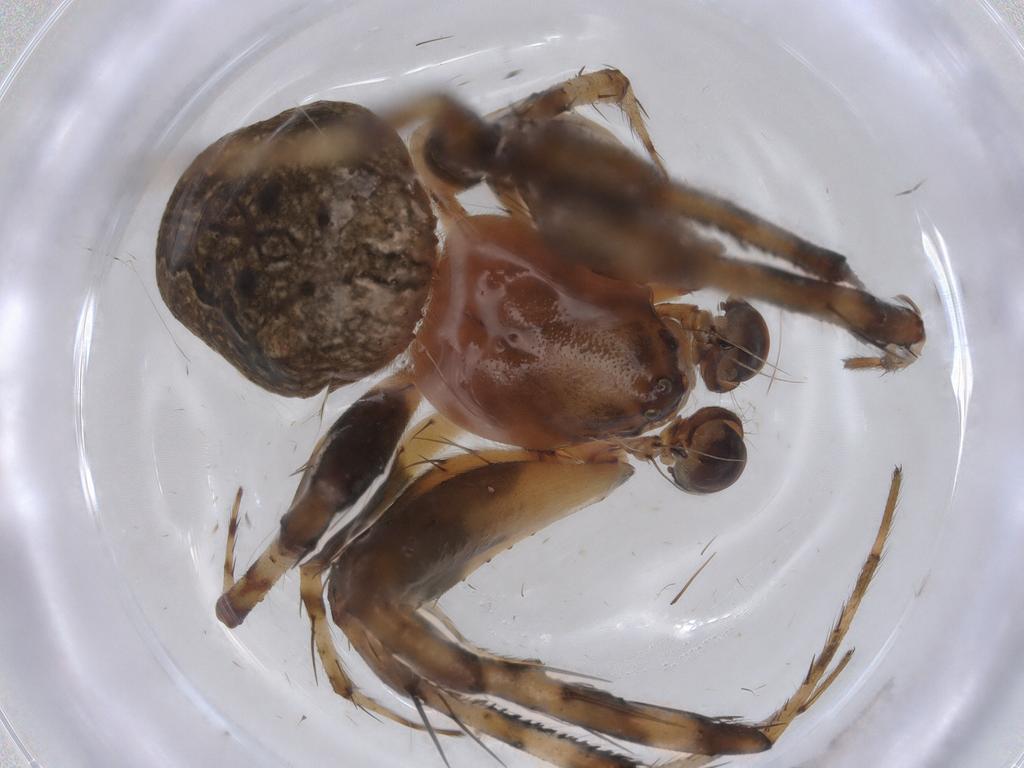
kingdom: Animalia
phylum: Arthropoda
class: Arachnida
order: Araneae
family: Araneidae
